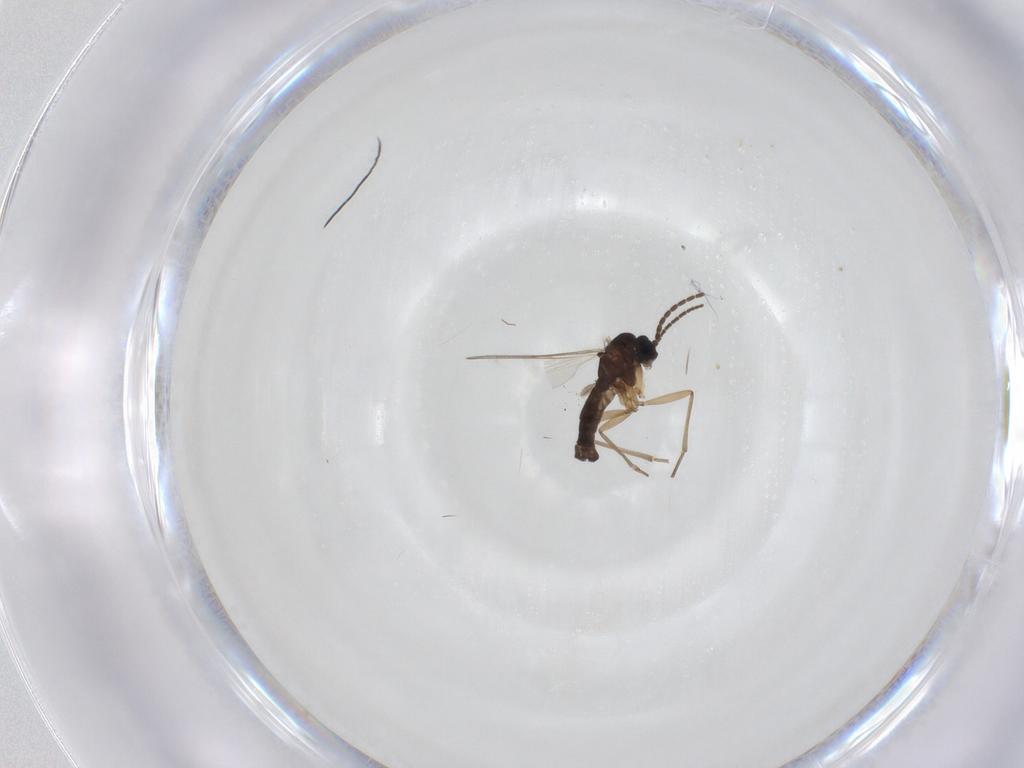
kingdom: Animalia
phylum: Arthropoda
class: Insecta
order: Diptera
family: Sciaridae
